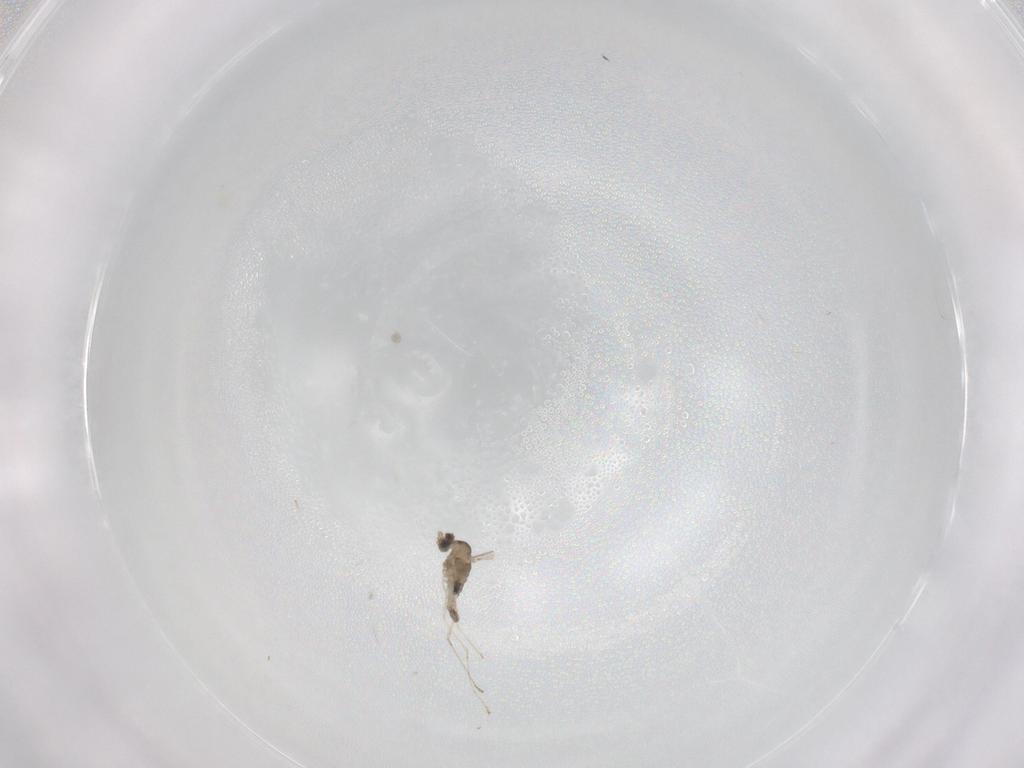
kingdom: Animalia
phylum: Arthropoda
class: Insecta
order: Diptera
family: Cecidomyiidae
